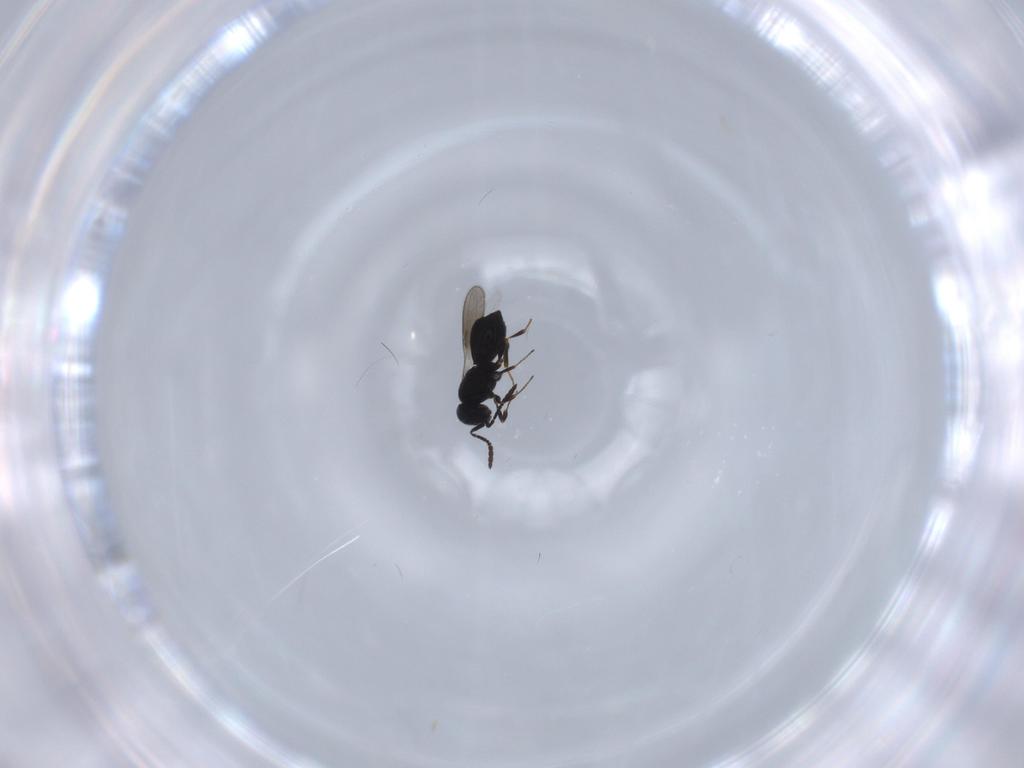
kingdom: Animalia
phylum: Arthropoda
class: Insecta
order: Hymenoptera
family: Scelionidae
